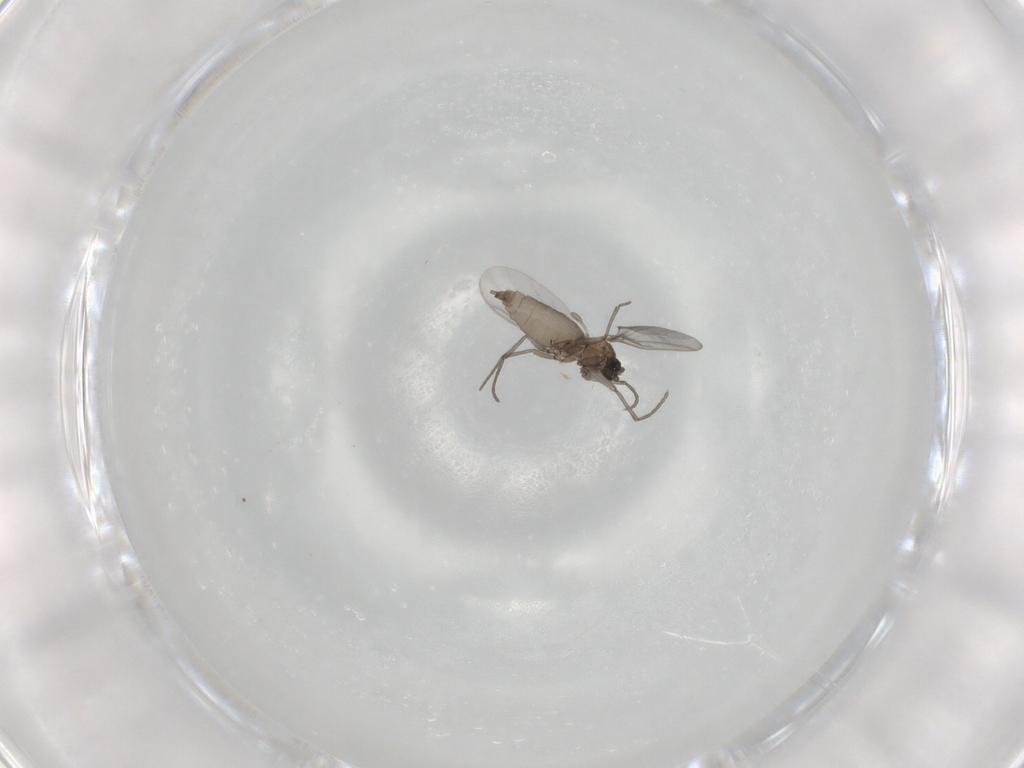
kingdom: Animalia
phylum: Arthropoda
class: Insecta
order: Diptera
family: Sciaridae
